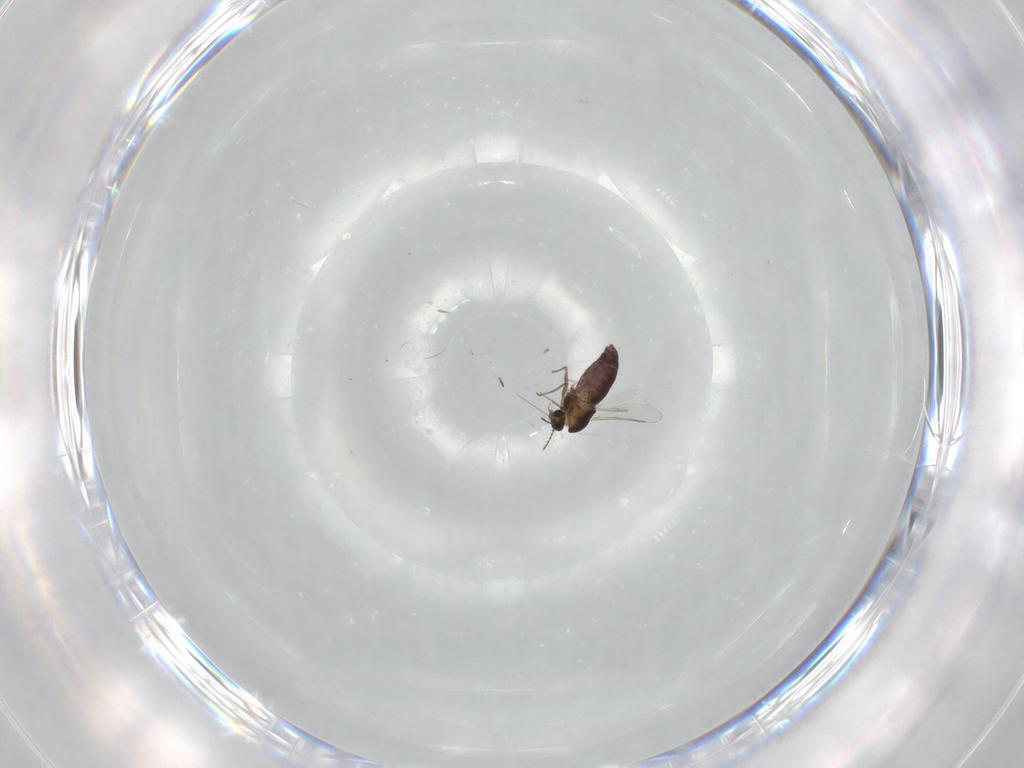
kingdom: Animalia
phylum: Arthropoda
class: Insecta
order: Diptera
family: Chironomidae
